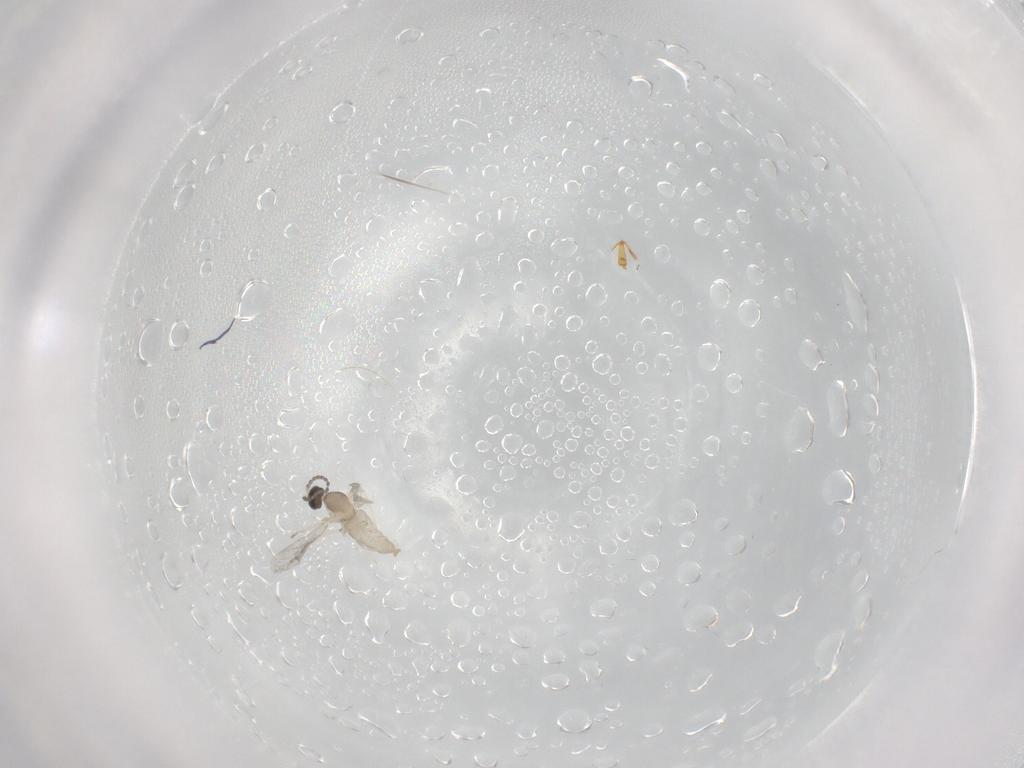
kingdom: Animalia
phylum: Arthropoda
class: Insecta
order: Diptera
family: Cecidomyiidae
